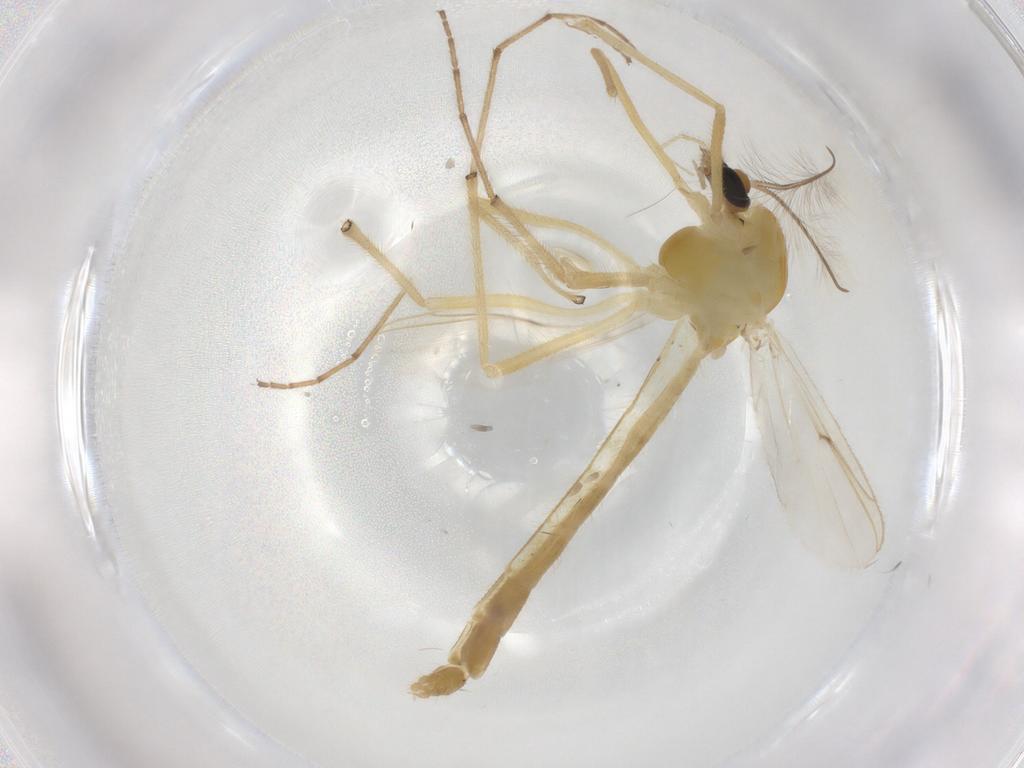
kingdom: Animalia
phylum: Arthropoda
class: Insecta
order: Diptera
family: Chironomidae
